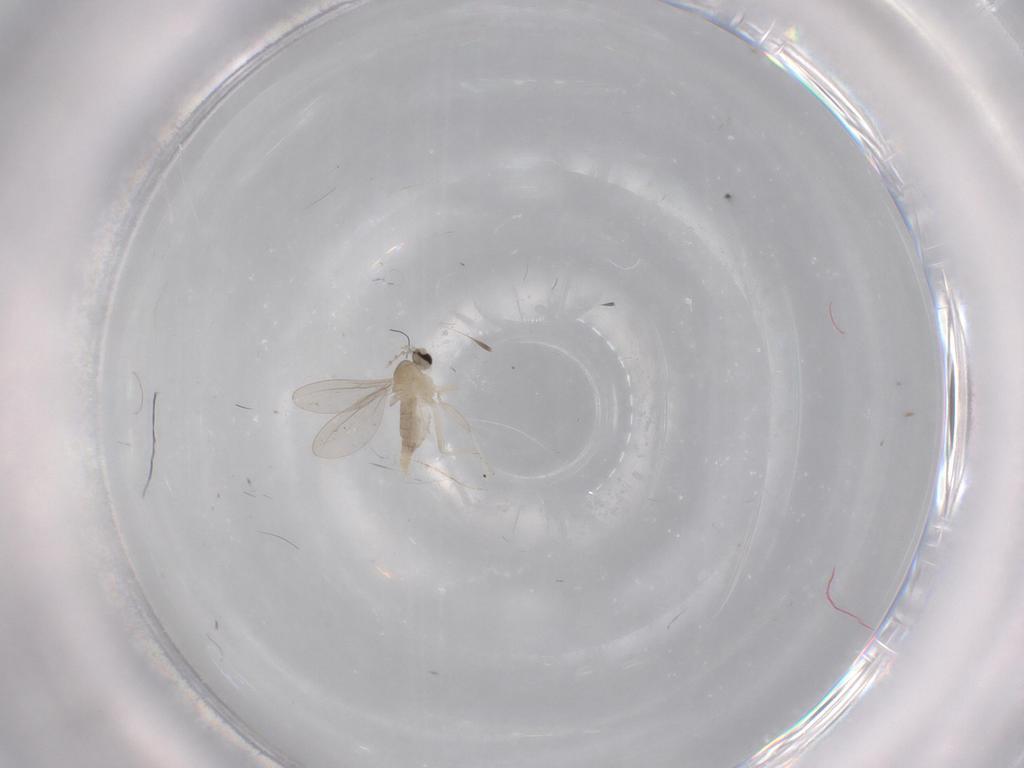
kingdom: Animalia
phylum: Arthropoda
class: Insecta
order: Diptera
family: Cecidomyiidae
